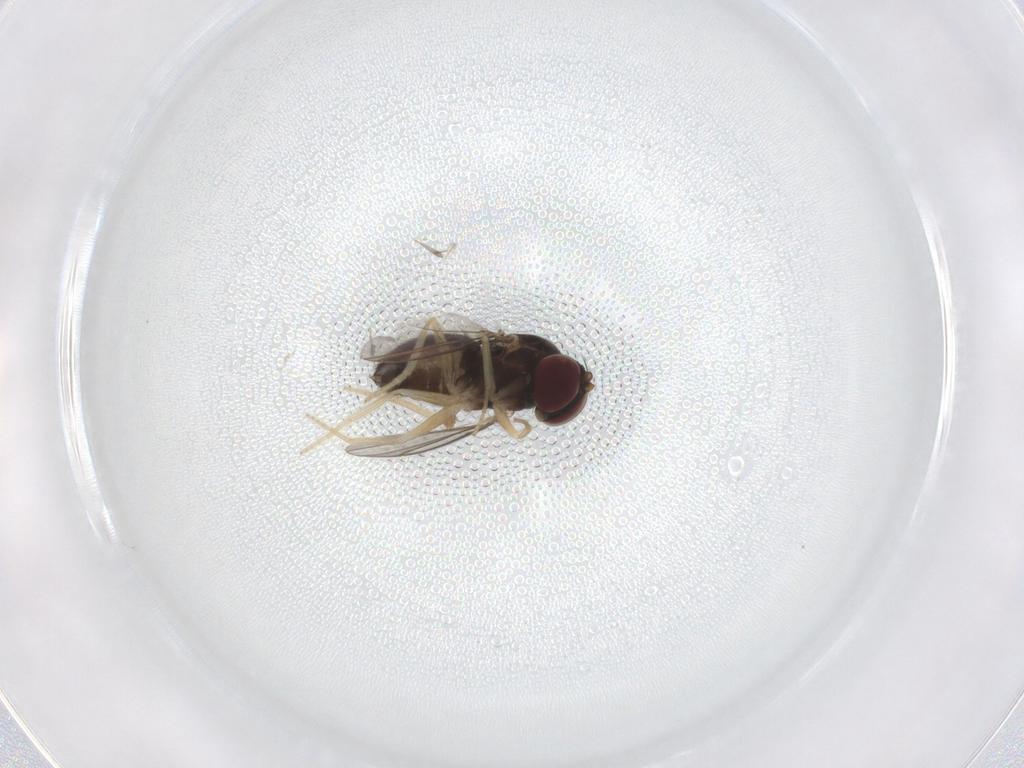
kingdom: Animalia
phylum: Arthropoda
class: Insecta
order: Diptera
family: Dolichopodidae
